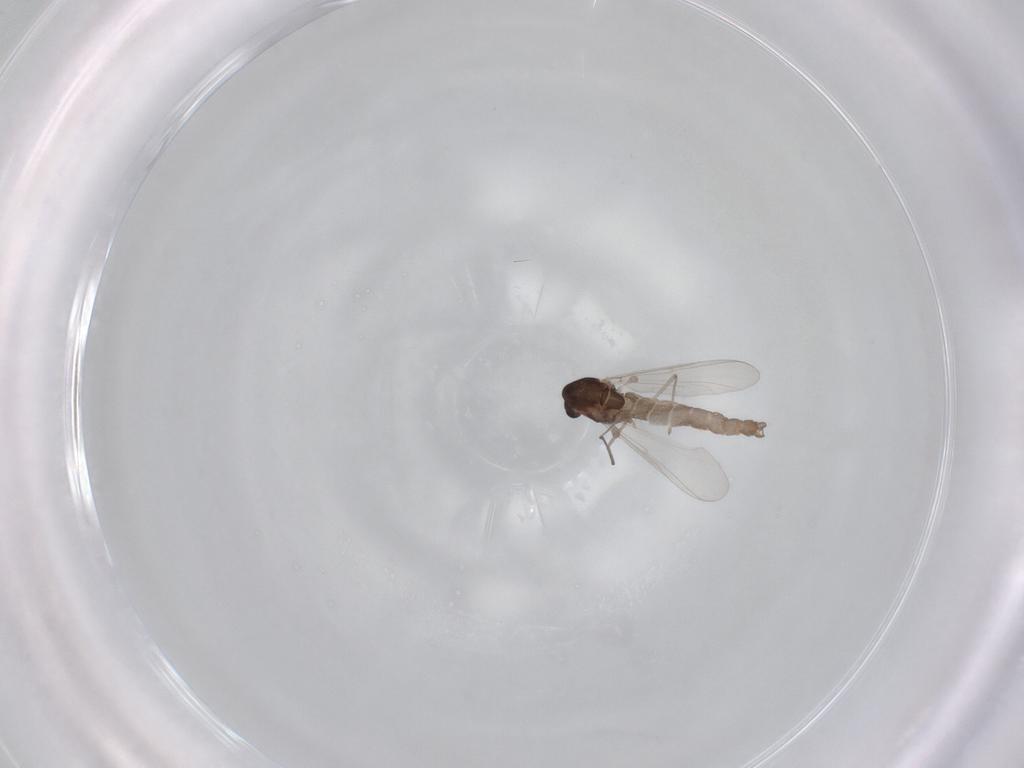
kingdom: Animalia
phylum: Arthropoda
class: Insecta
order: Diptera
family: Chironomidae
